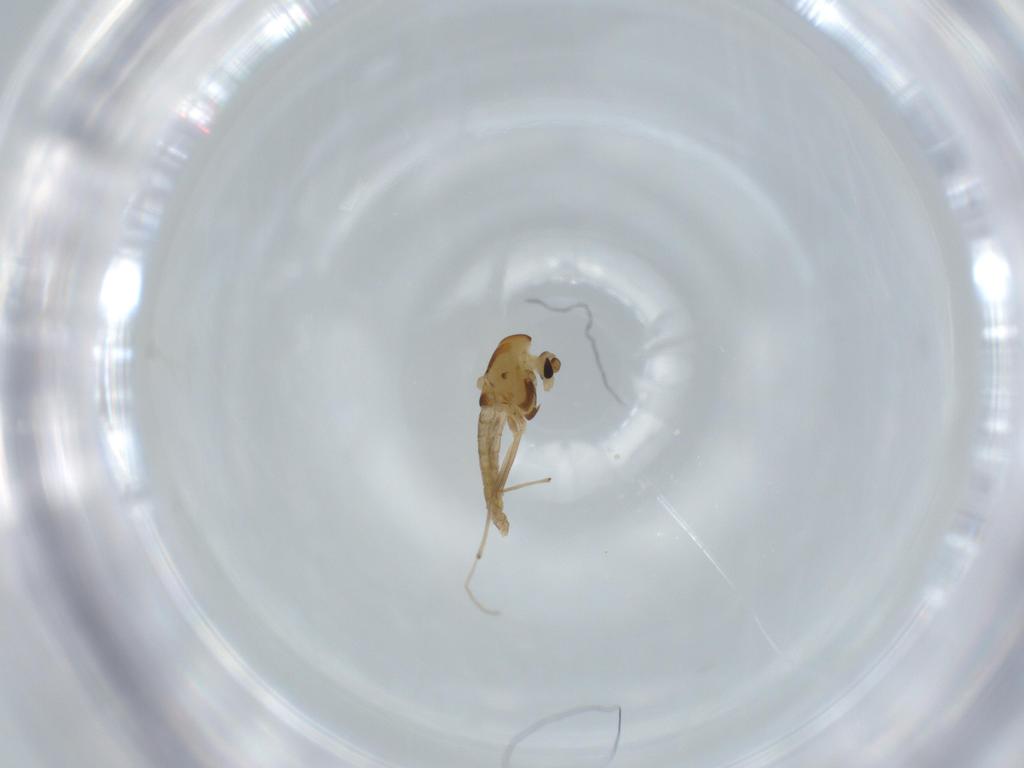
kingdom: Animalia
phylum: Arthropoda
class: Insecta
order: Diptera
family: Chironomidae
